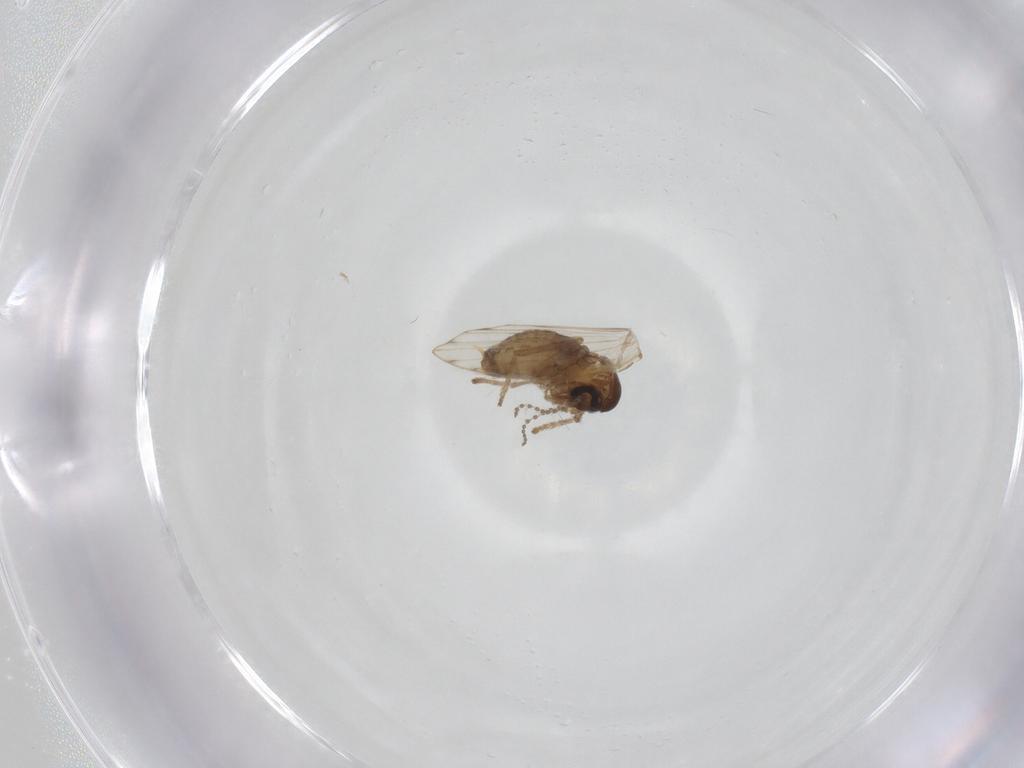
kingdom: Animalia
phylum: Arthropoda
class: Insecta
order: Diptera
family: Psychodidae
